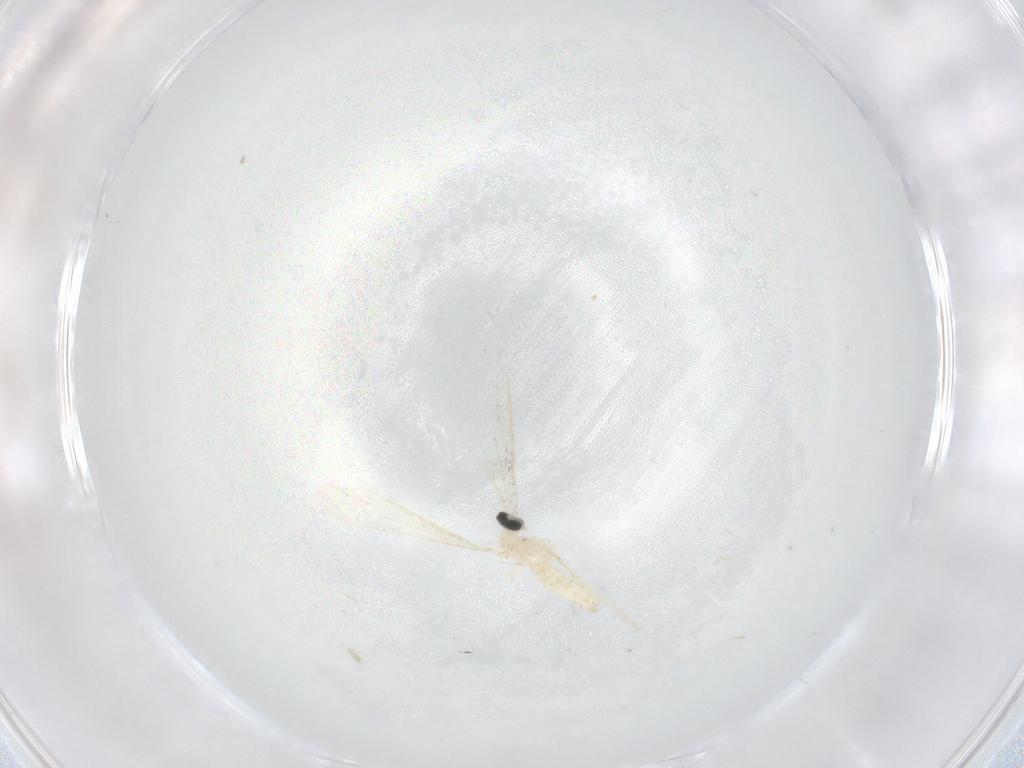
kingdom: Animalia
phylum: Arthropoda
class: Insecta
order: Diptera
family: Cecidomyiidae
